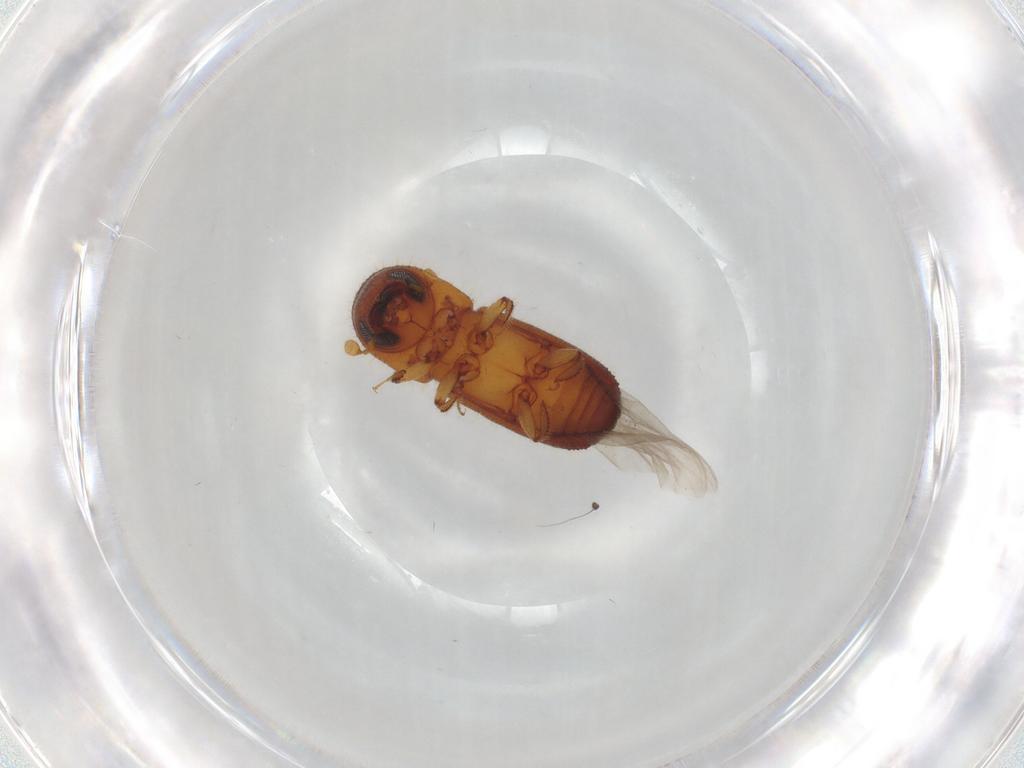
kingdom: Animalia
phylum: Arthropoda
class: Insecta
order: Coleoptera
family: Curculionidae
